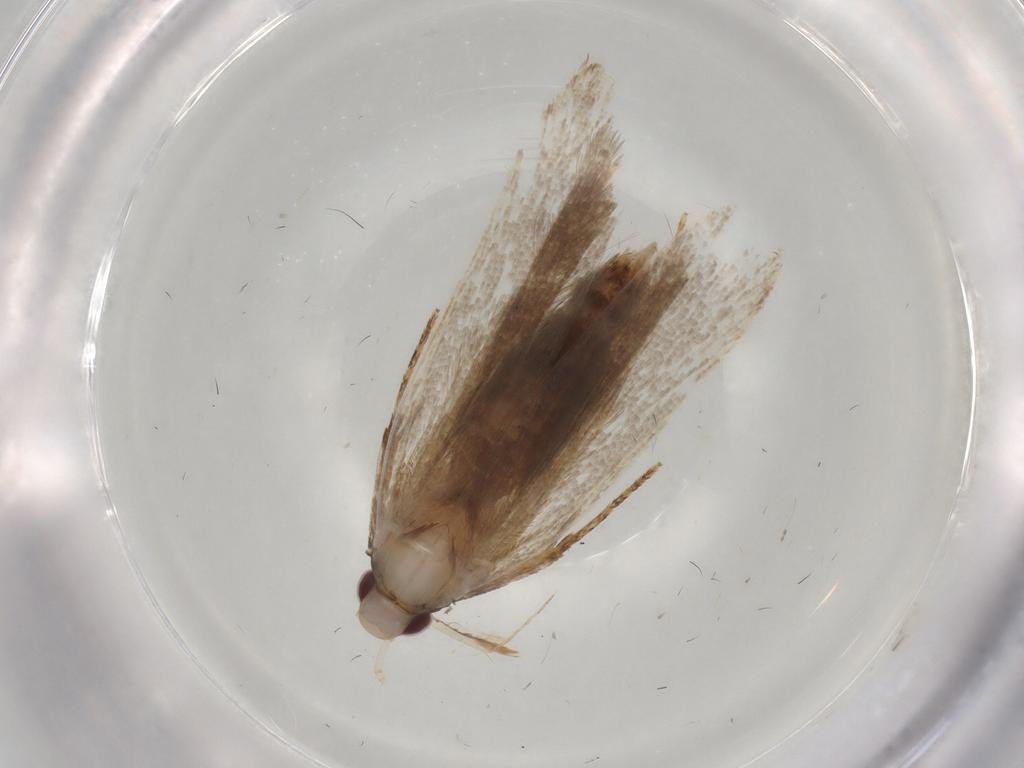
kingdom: Animalia
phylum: Arthropoda
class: Insecta
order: Lepidoptera
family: Gelechiidae
